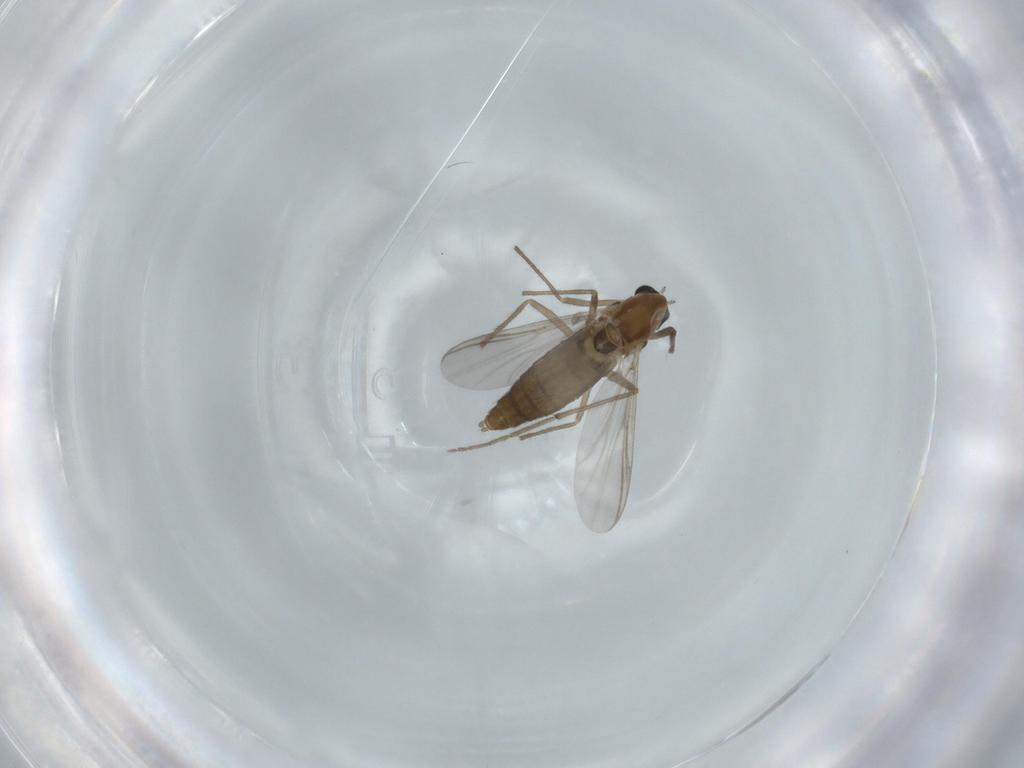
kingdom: Animalia
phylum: Arthropoda
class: Insecta
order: Diptera
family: Chironomidae
